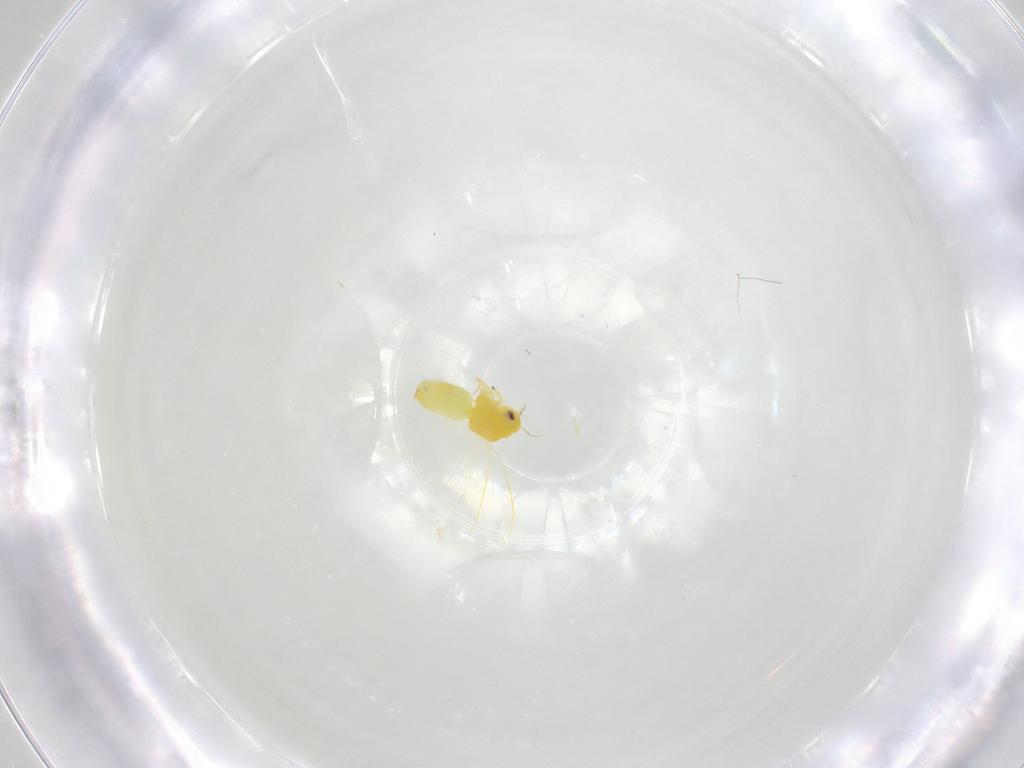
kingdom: Animalia
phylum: Arthropoda
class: Insecta
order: Hemiptera
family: Aleyrodidae
